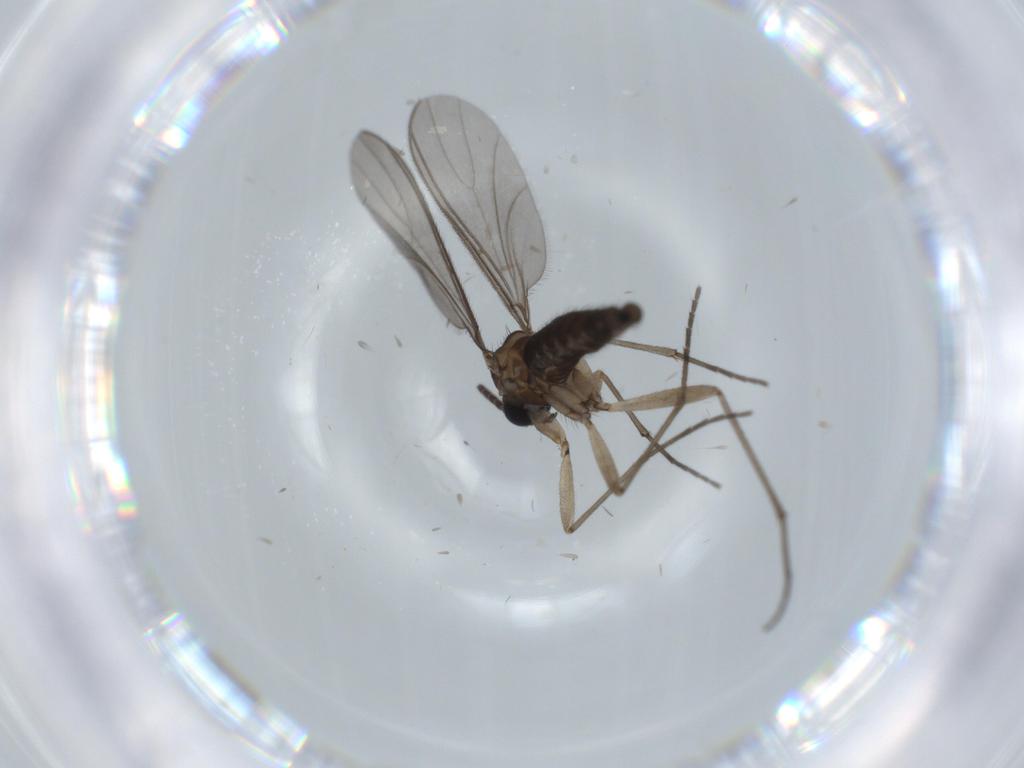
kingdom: Animalia
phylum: Arthropoda
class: Insecta
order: Diptera
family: Drosophilidae
